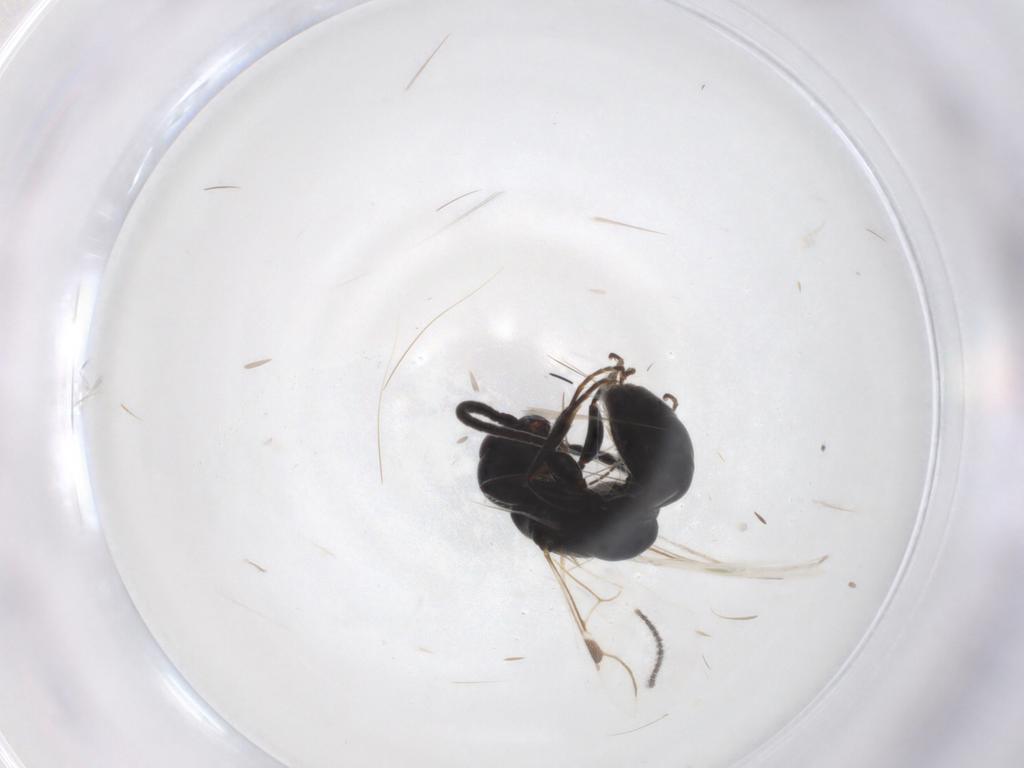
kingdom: Animalia
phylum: Arthropoda
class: Insecta
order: Hymenoptera
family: Bethylidae
